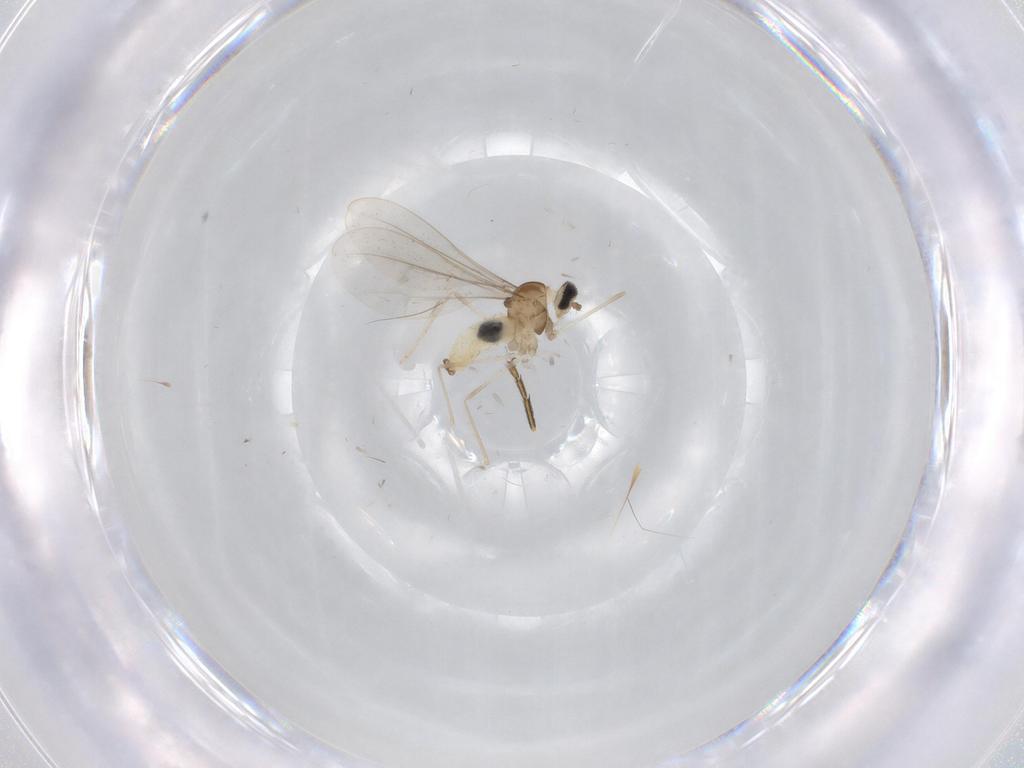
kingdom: Animalia
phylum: Arthropoda
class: Insecta
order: Diptera
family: Cecidomyiidae
